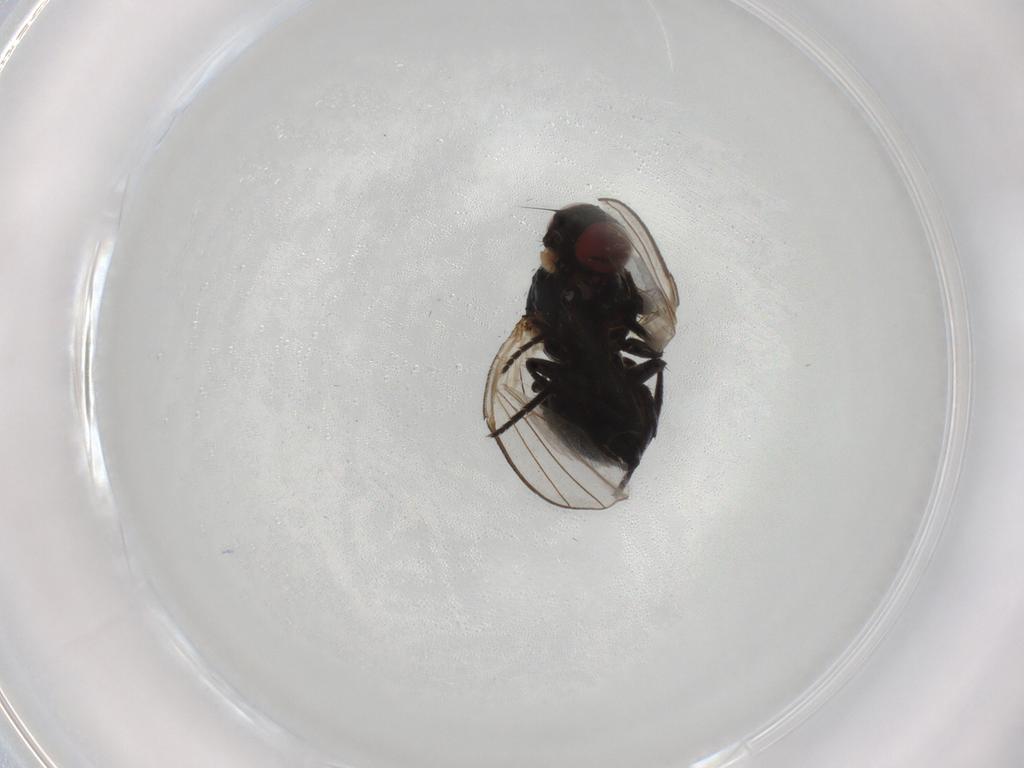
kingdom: Animalia
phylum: Arthropoda
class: Insecta
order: Diptera
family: Agromyzidae
